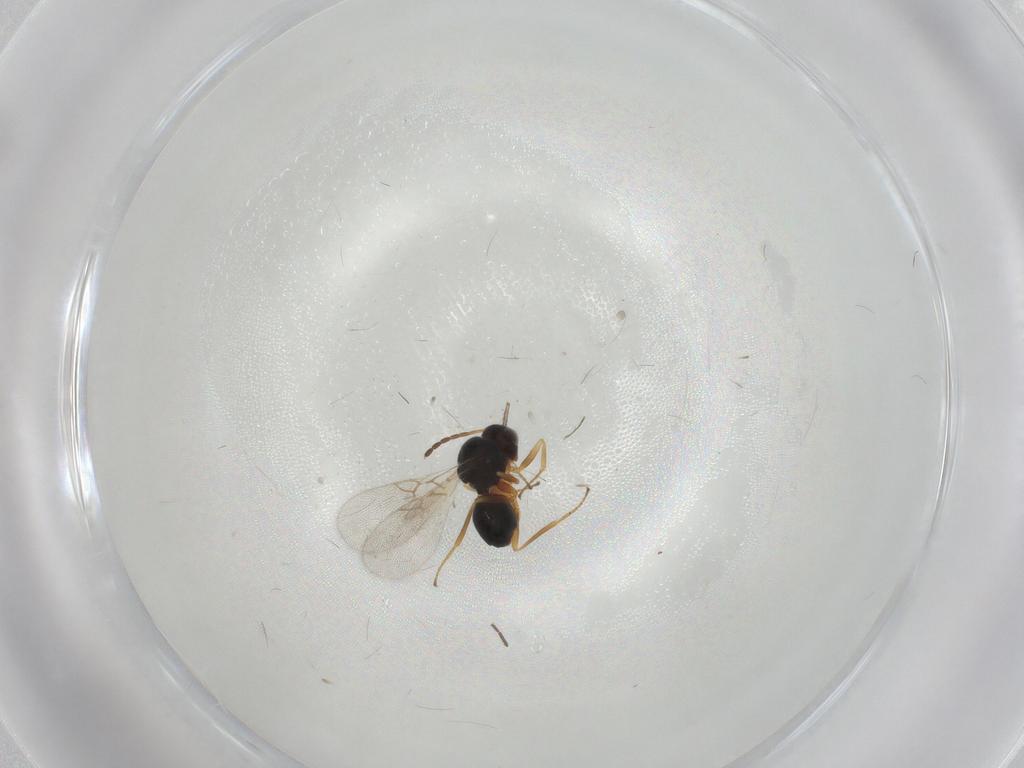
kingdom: Animalia
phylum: Arthropoda
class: Insecta
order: Hymenoptera
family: Figitidae
